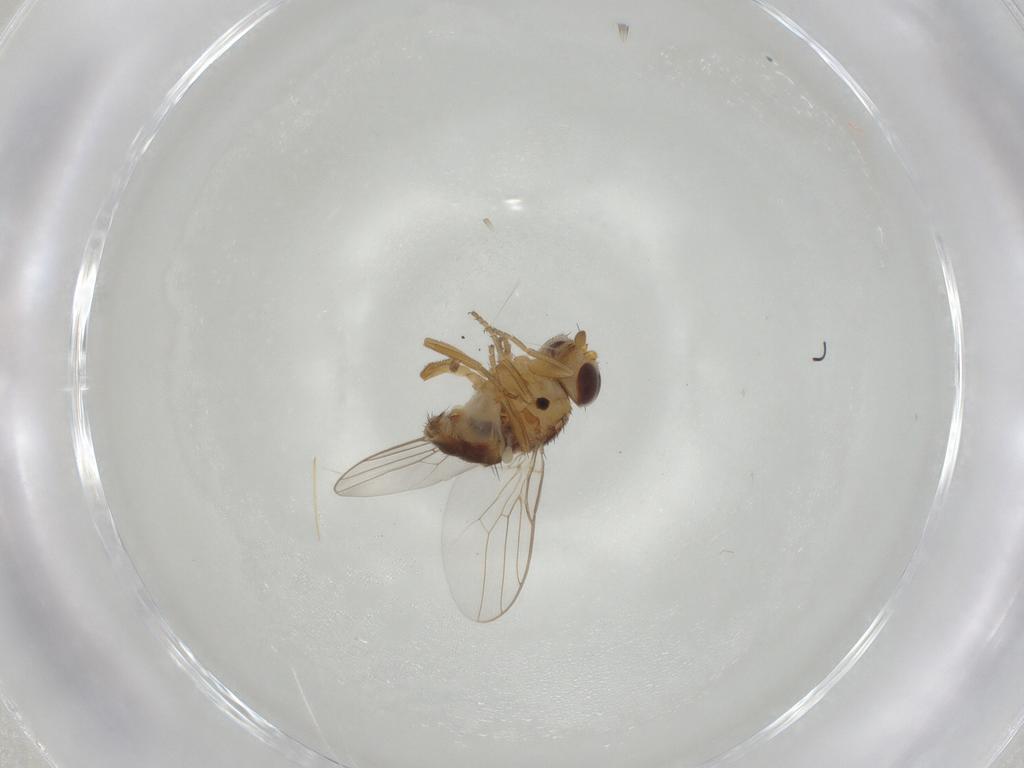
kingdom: Animalia
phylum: Arthropoda
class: Insecta
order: Diptera
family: Chloropidae
